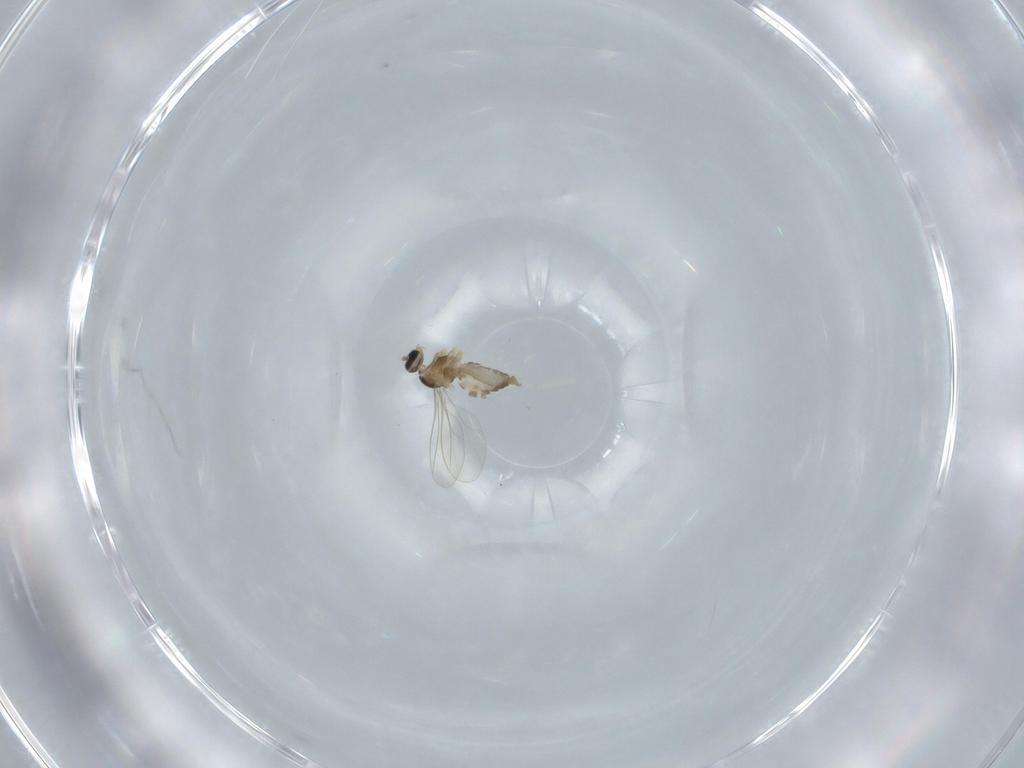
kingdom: Animalia
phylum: Arthropoda
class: Insecta
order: Diptera
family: Cecidomyiidae
